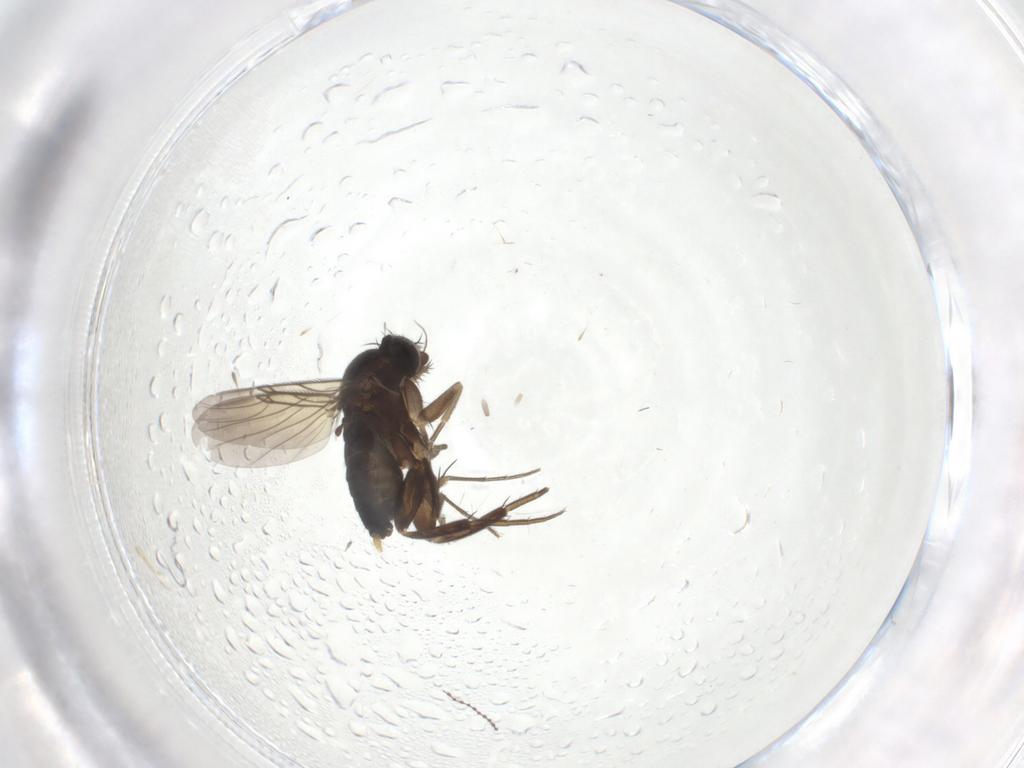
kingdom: Animalia
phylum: Arthropoda
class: Insecta
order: Diptera
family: Phoridae
